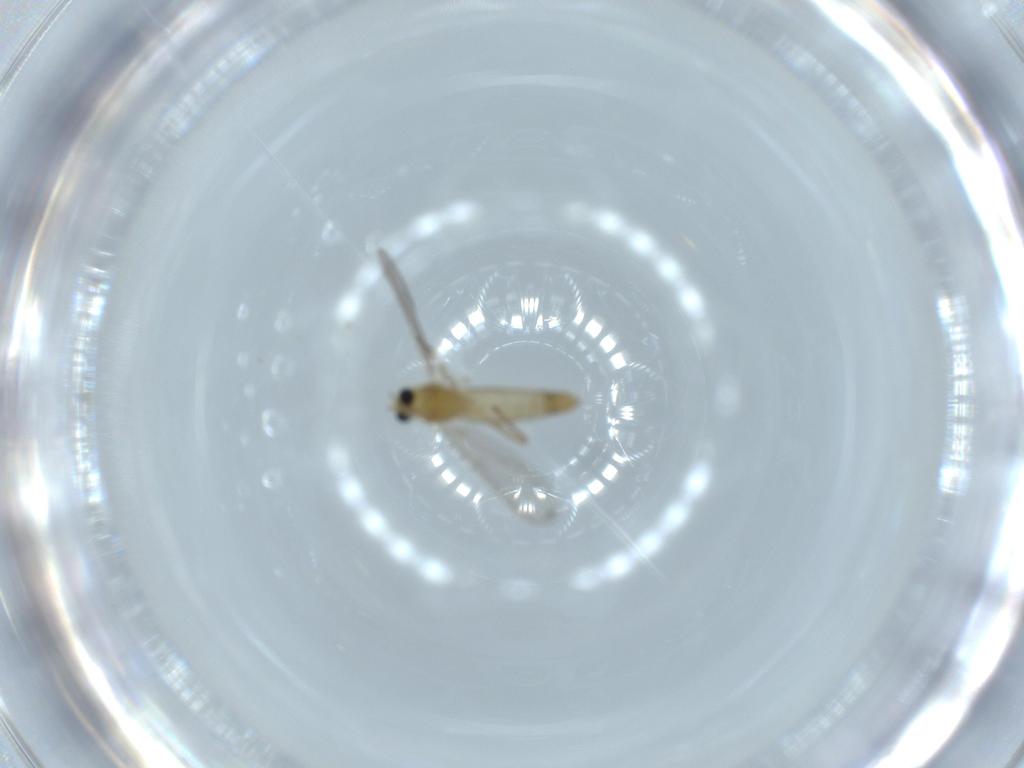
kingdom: Animalia
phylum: Arthropoda
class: Insecta
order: Diptera
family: Chironomidae
